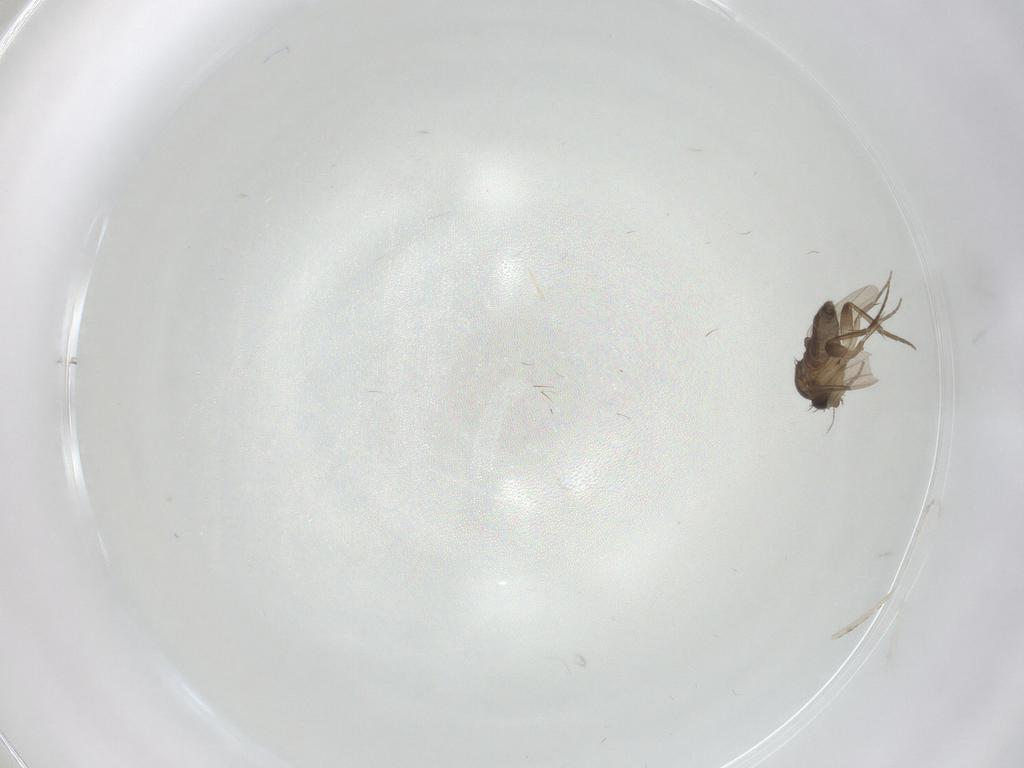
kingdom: Animalia
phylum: Arthropoda
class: Insecta
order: Diptera
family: Phoridae
